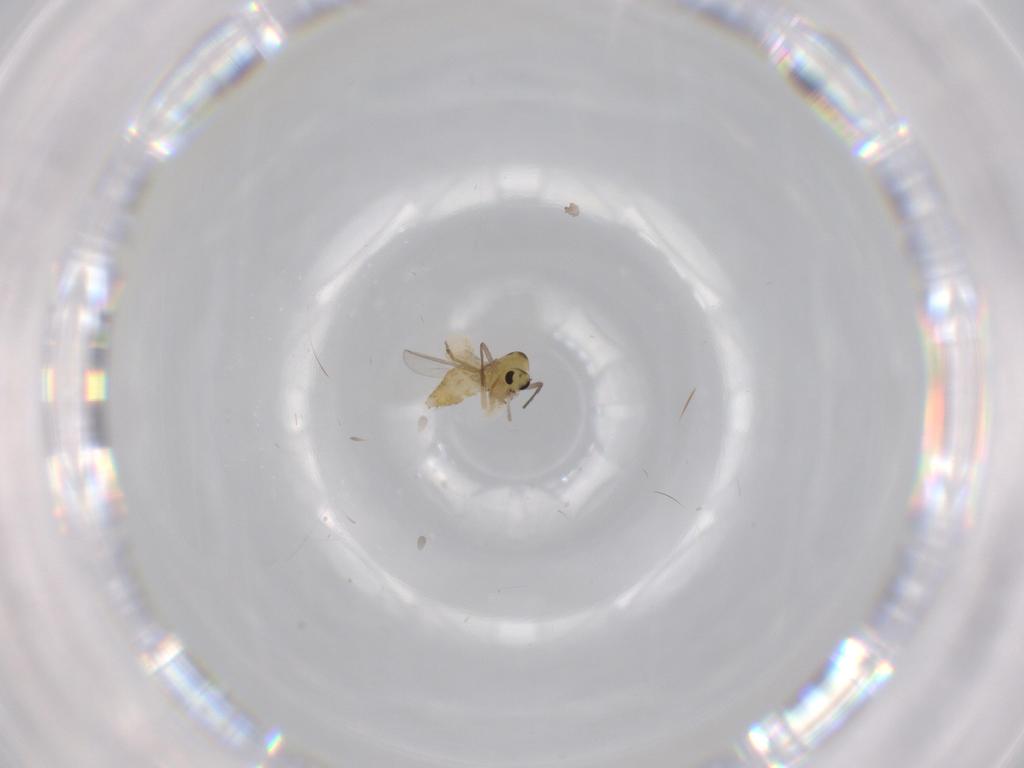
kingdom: Animalia
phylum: Arthropoda
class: Insecta
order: Diptera
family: Chironomidae
